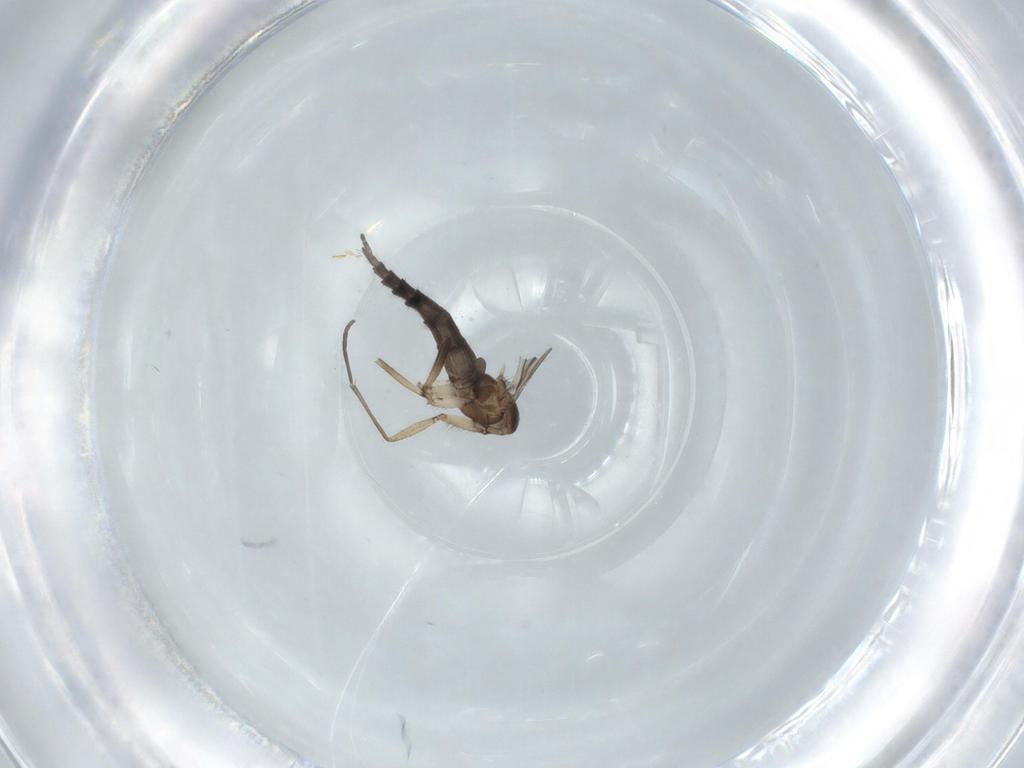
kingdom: Animalia
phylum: Arthropoda
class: Insecta
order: Diptera
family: Sciaridae
